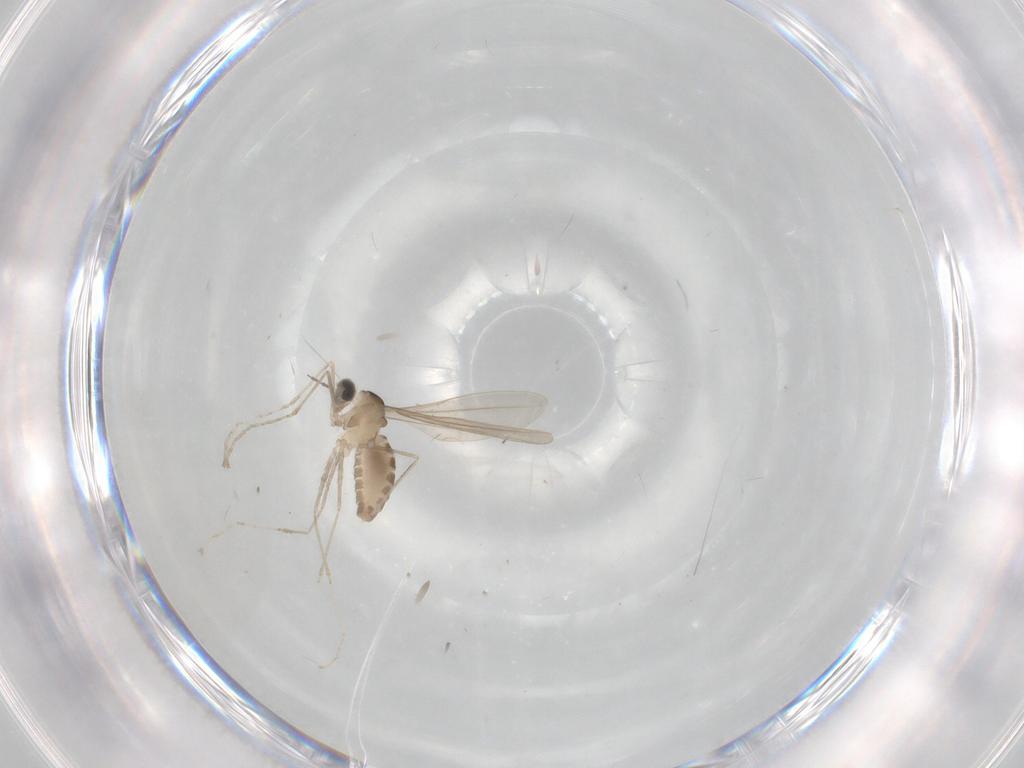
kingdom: Animalia
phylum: Arthropoda
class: Insecta
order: Diptera
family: Cecidomyiidae
